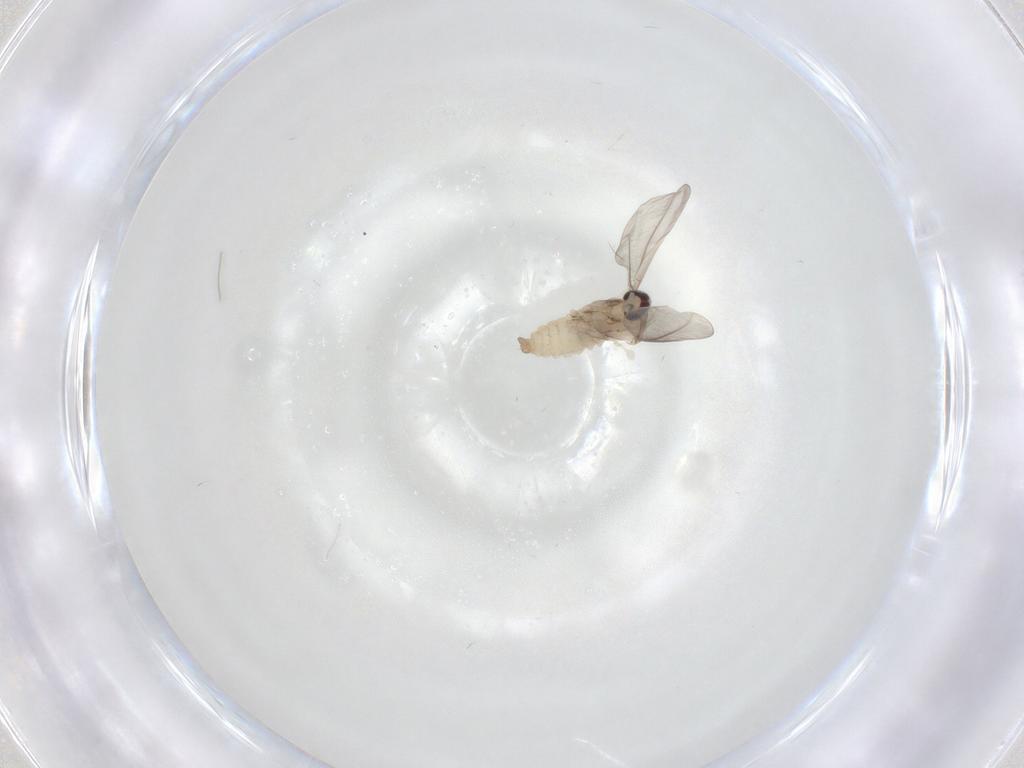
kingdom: Animalia
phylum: Arthropoda
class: Insecta
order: Diptera
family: Cecidomyiidae
